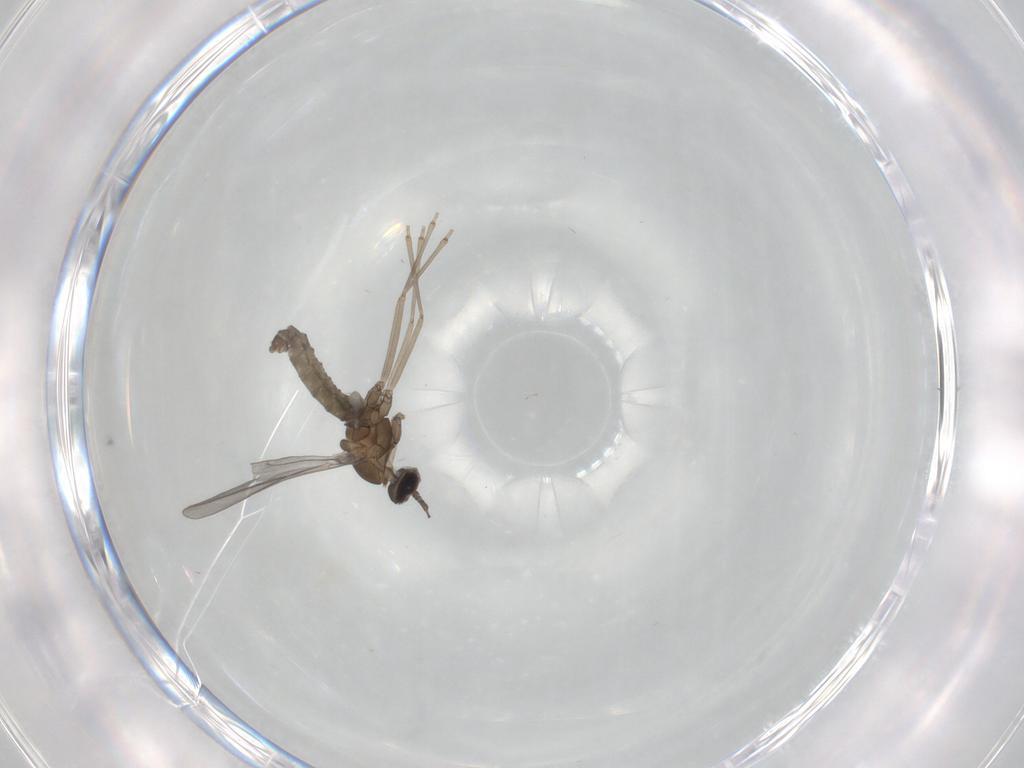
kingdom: Animalia
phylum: Arthropoda
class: Insecta
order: Diptera
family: Cecidomyiidae
